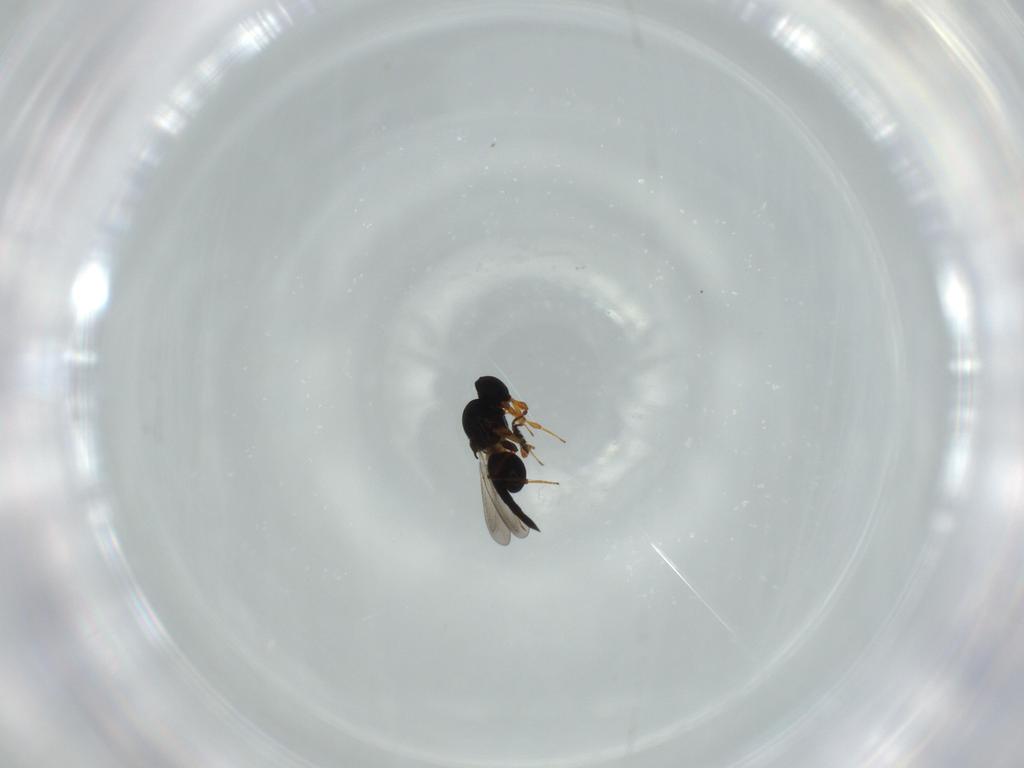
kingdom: Animalia
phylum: Arthropoda
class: Insecta
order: Hymenoptera
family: Platygastridae
